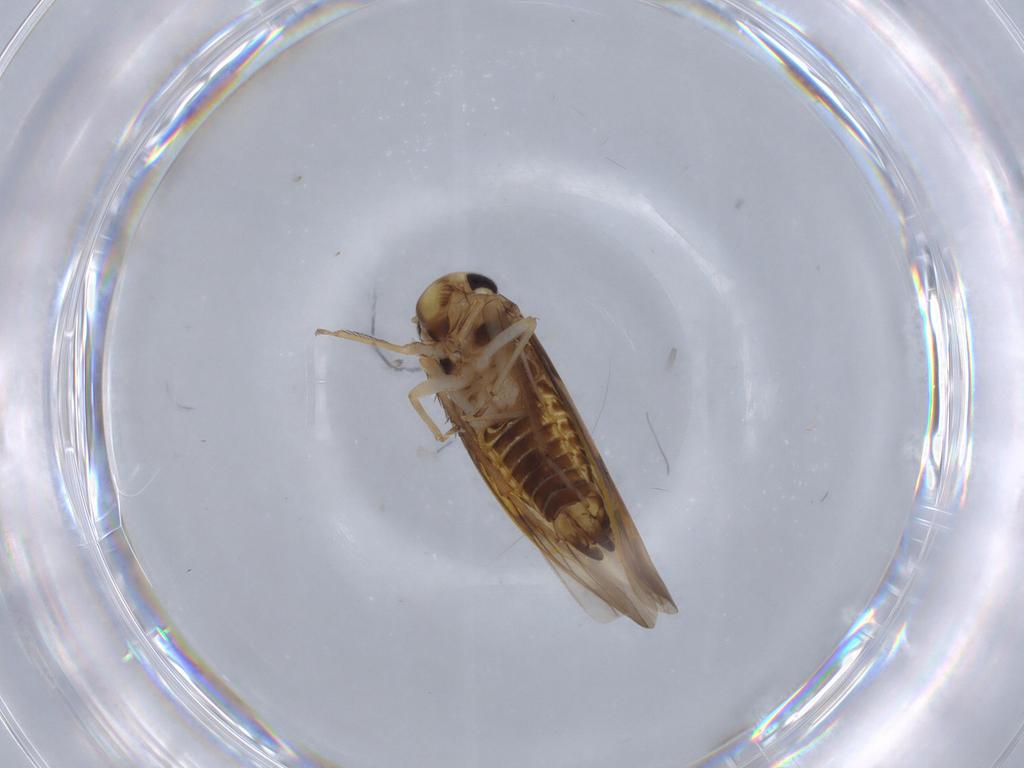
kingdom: Animalia
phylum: Arthropoda
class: Insecta
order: Hemiptera
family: Cicadellidae
